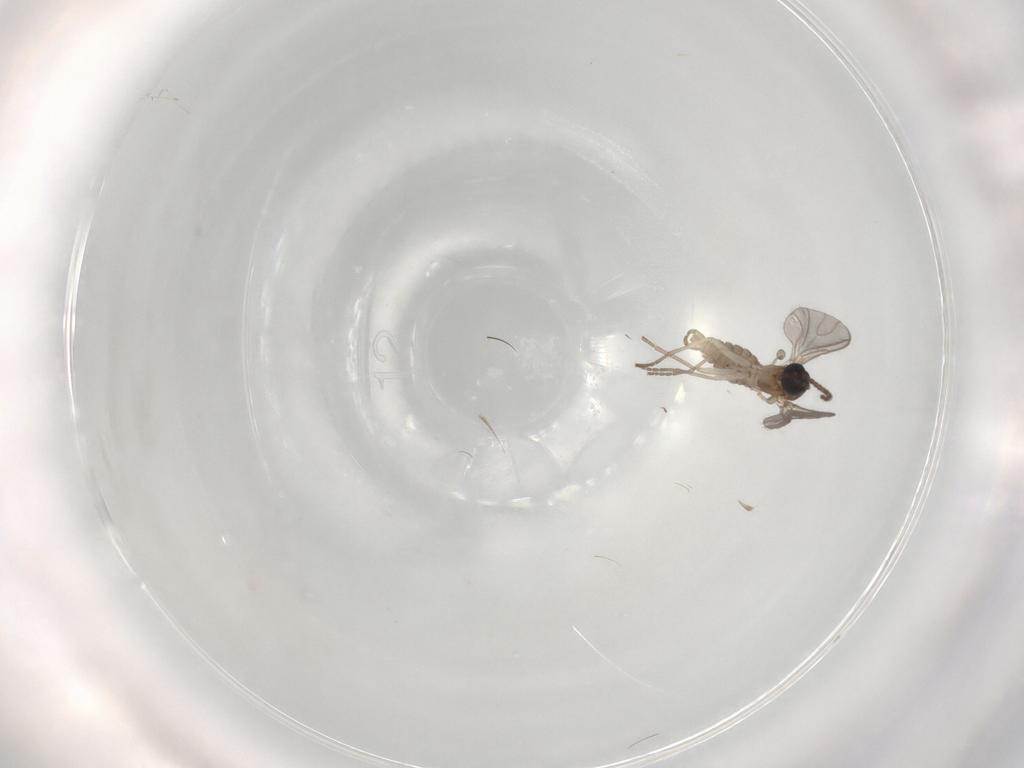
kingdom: Animalia
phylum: Arthropoda
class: Insecta
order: Diptera
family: Sciaridae
